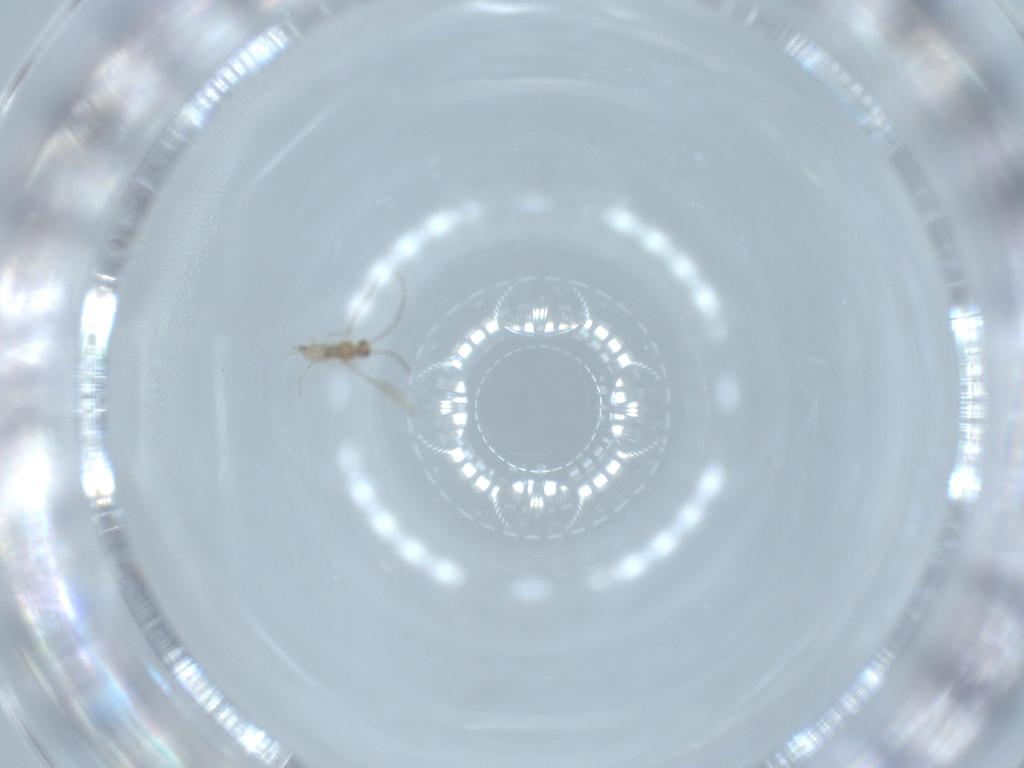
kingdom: Animalia
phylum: Arthropoda
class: Insecta
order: Diptera
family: Cecidomyiidae
